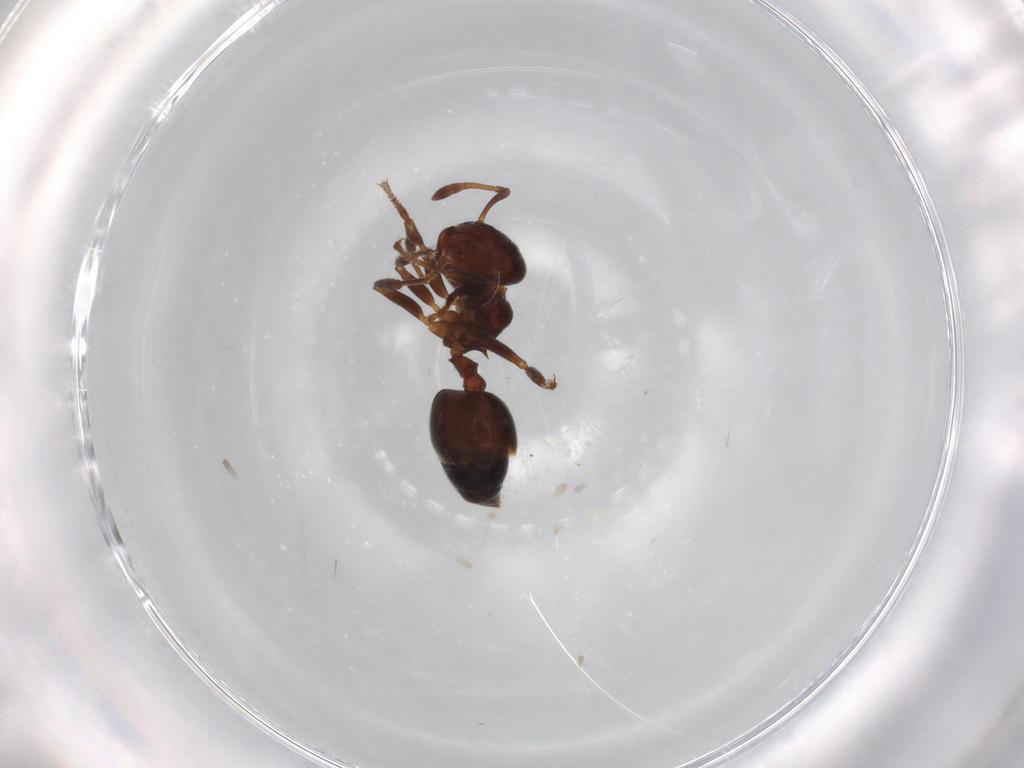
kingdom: Animalia
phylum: Arthropoda
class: Insecta
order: Hymenoptera
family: Formicidae
